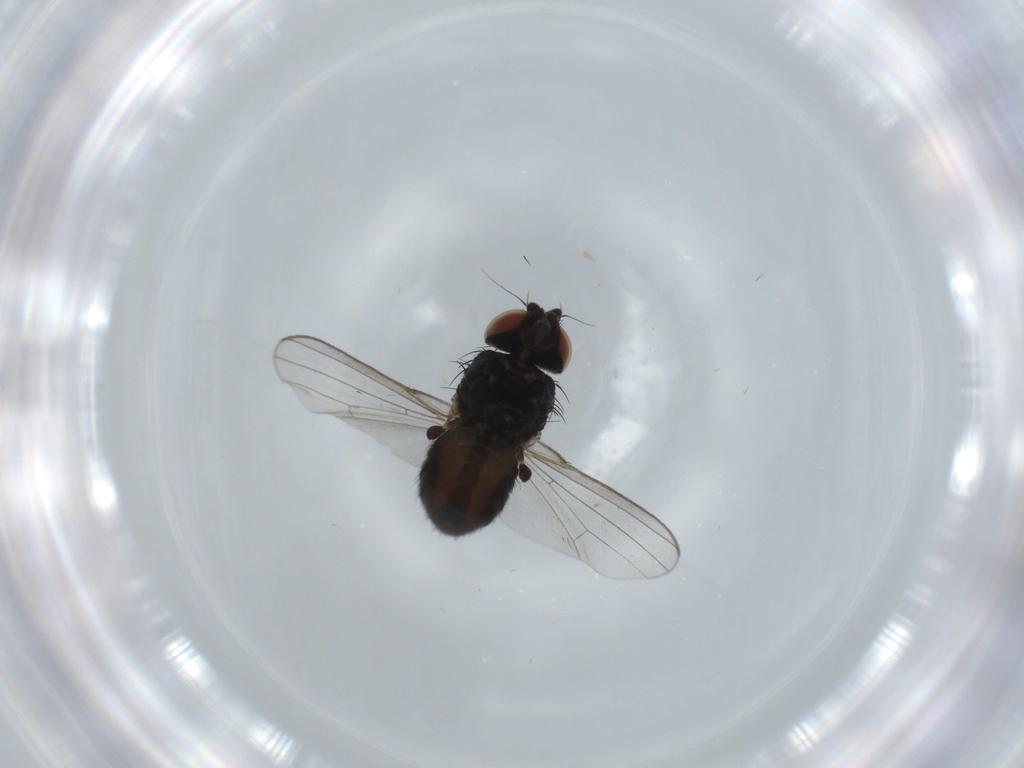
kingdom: Animalia
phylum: Arthropoda
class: Insecta
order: Diptera
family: Milichiidae
